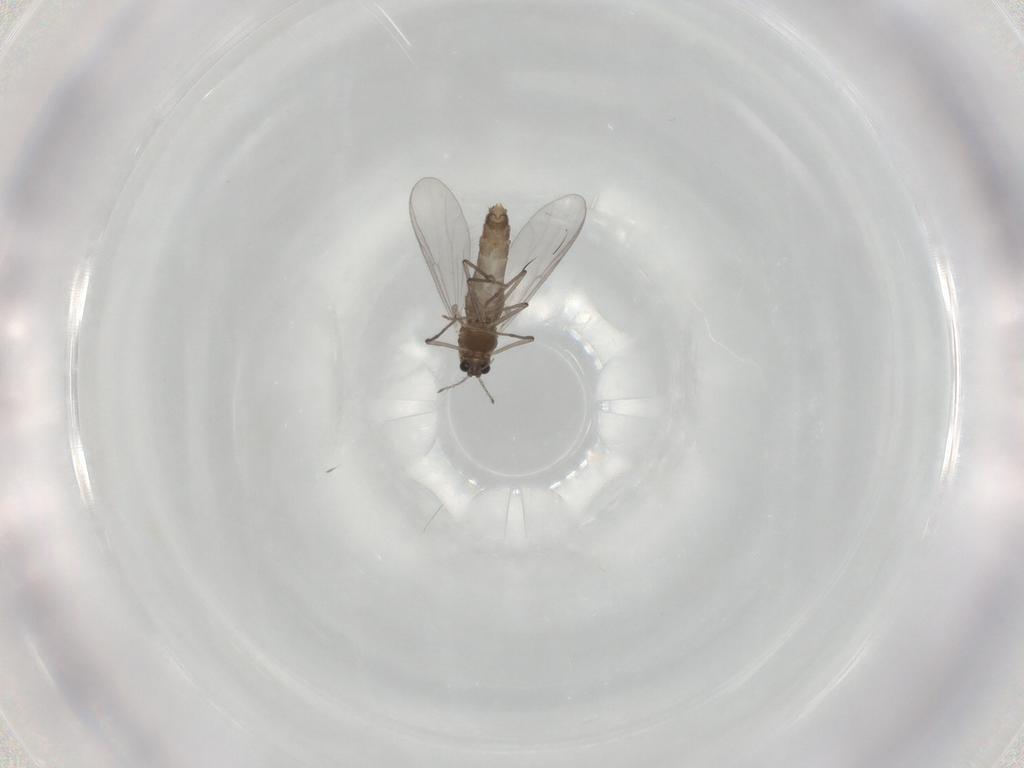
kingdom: Animalia
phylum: Arthropoda
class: Insecta
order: Diptera
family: Chironomidae
